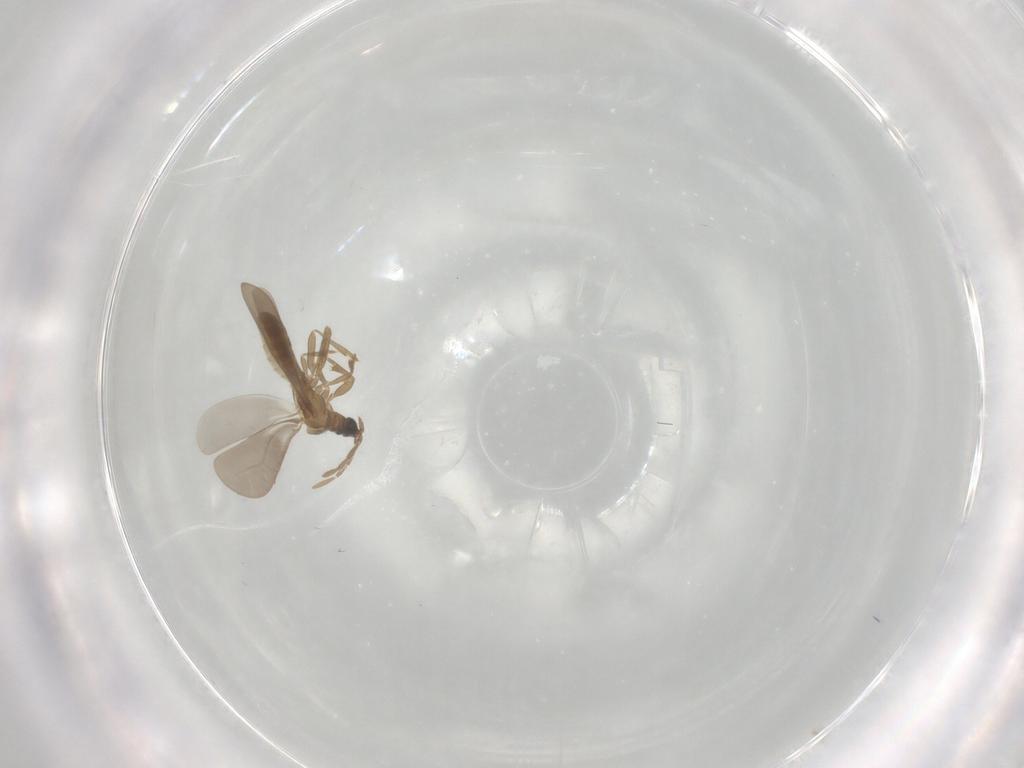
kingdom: Animalia
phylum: Arthropoda
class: Insecta
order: Hemiptera
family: Enicocephalidae
